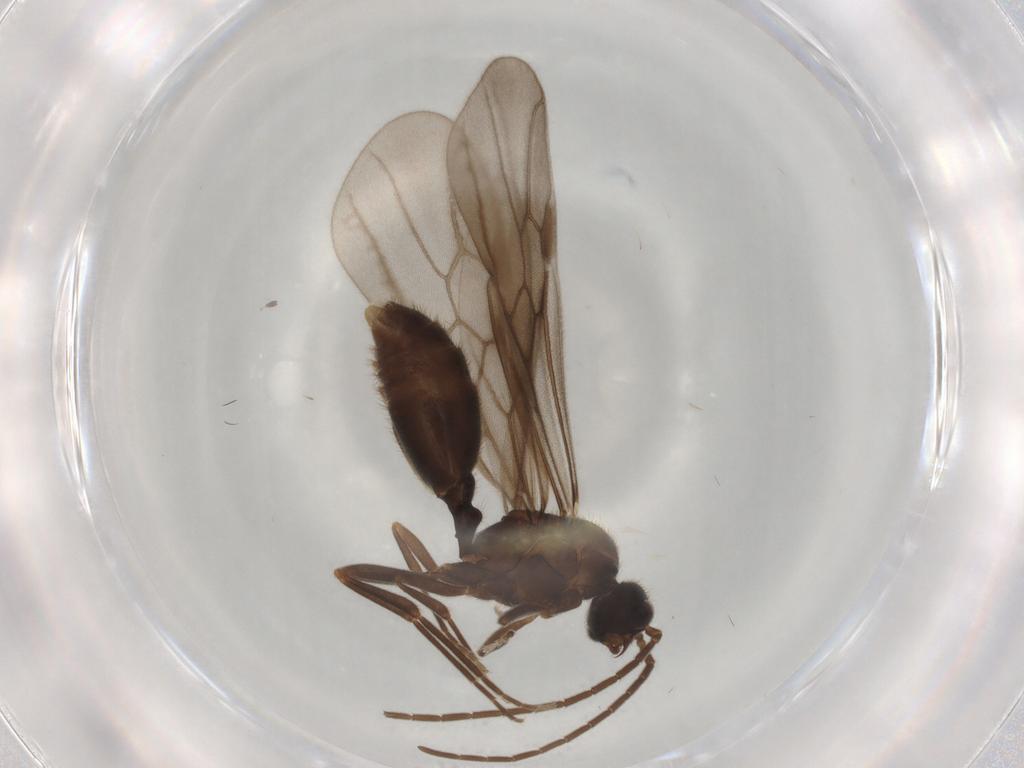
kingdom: Animalia
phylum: Arthropoda
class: Insecta
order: Hymenoptera
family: Formicidae
